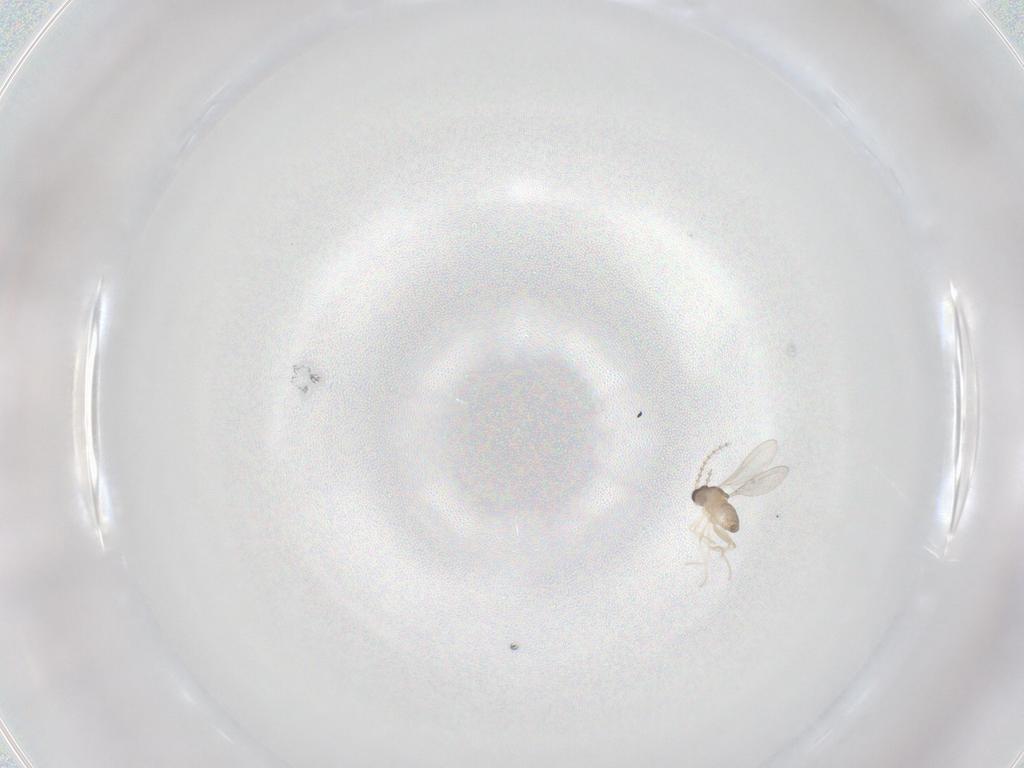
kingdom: Animalia
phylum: Arthropoda
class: Insecta
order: Diptera
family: Cecidomyiidae
